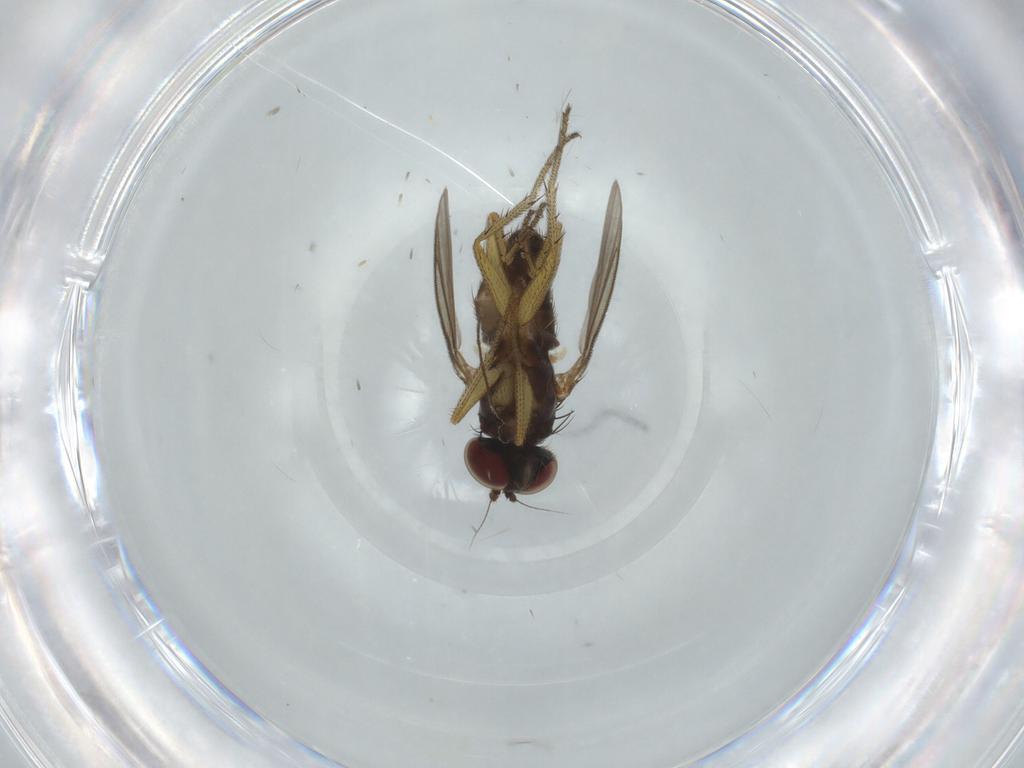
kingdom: Animalia
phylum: Arthropoda
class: Insecta
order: Diptera
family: Dolichopodidae
